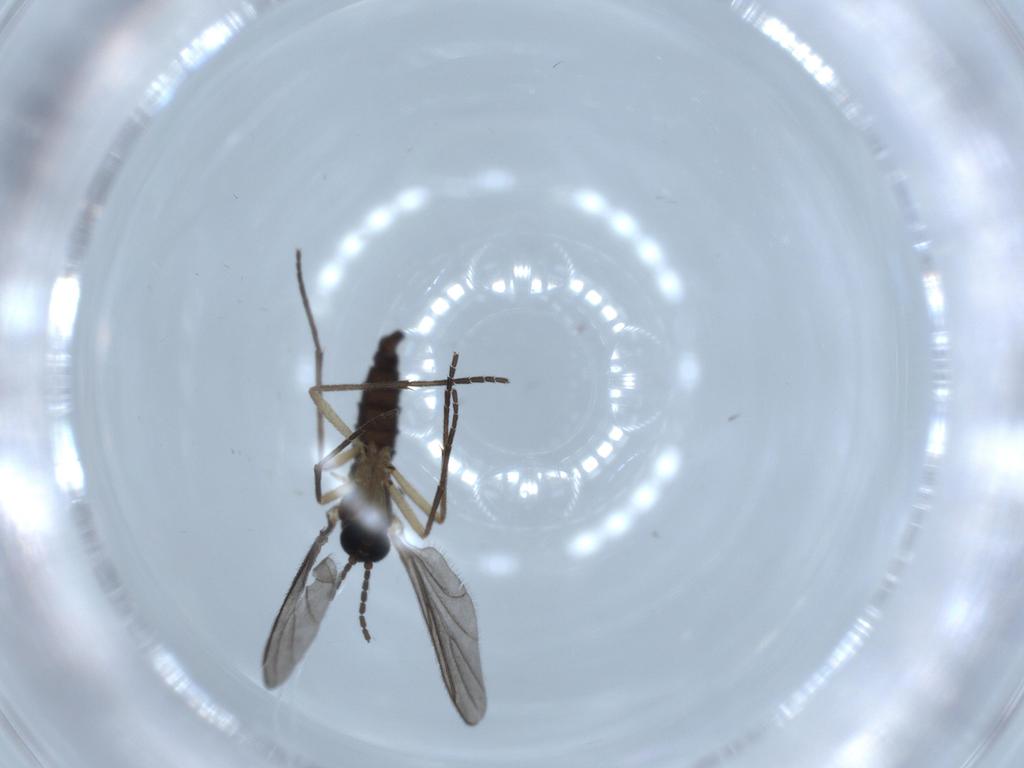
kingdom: Animalia
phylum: Arthropoda
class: Insecta
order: Diptera
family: Sciaridae
